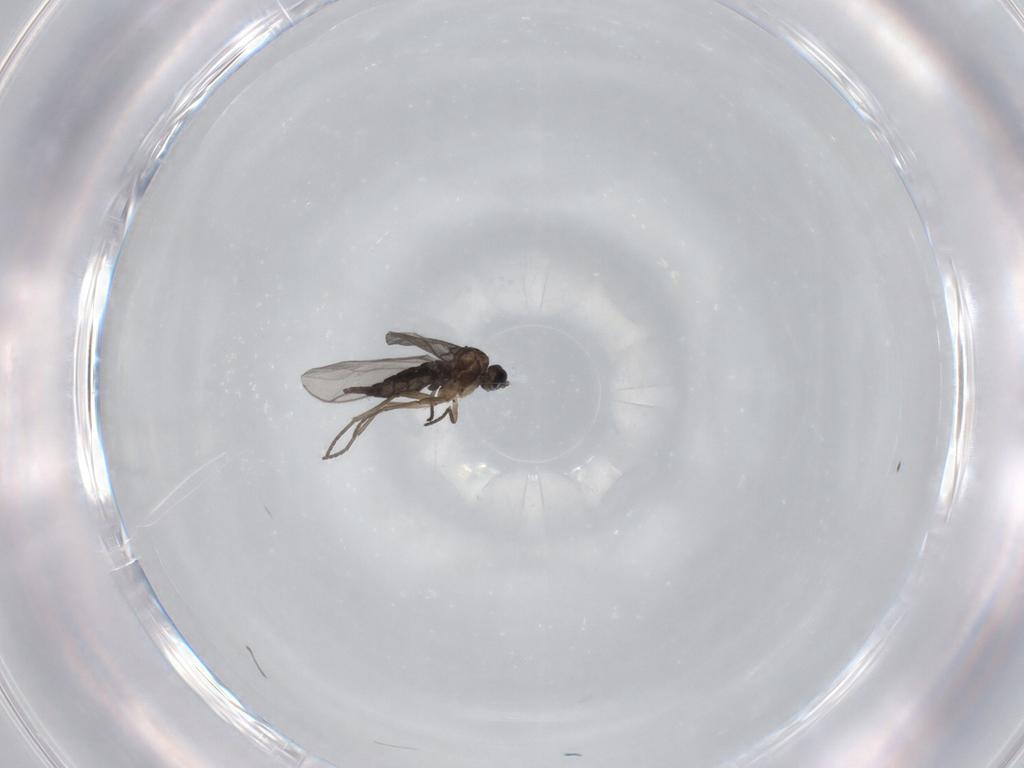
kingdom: Animalia
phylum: Arthropoda
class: Insecta
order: Diptera
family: Sciaridae
